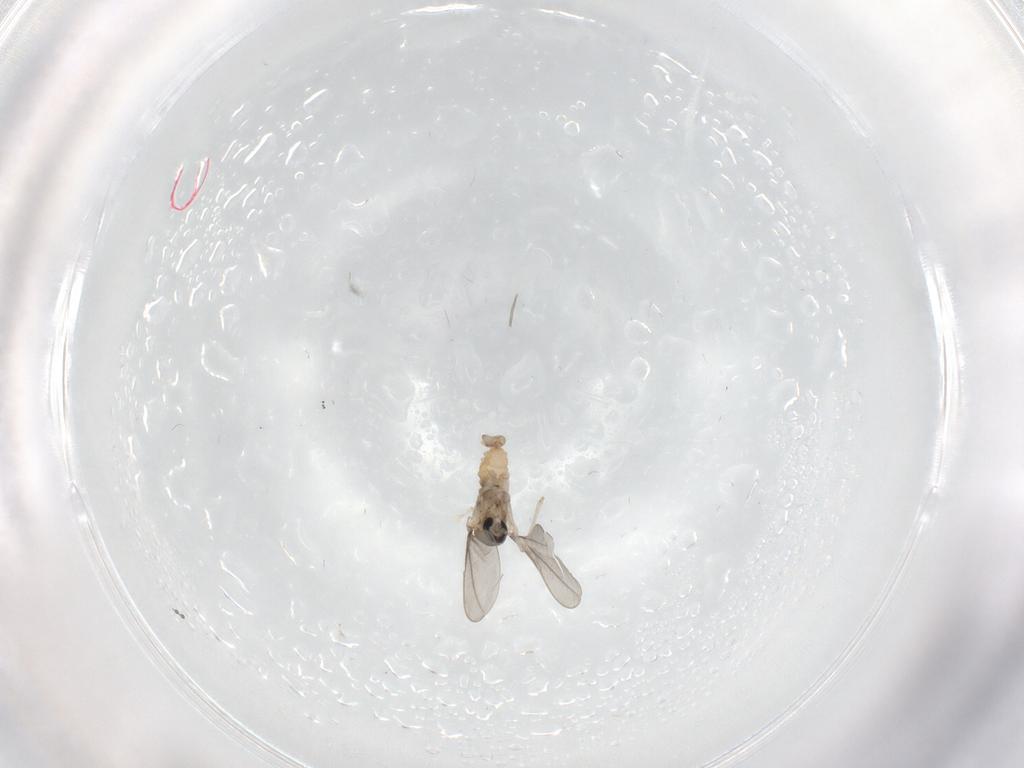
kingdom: Animalia
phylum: Arthropoda
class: Insecta
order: Diptera
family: Cecidomyiidae
